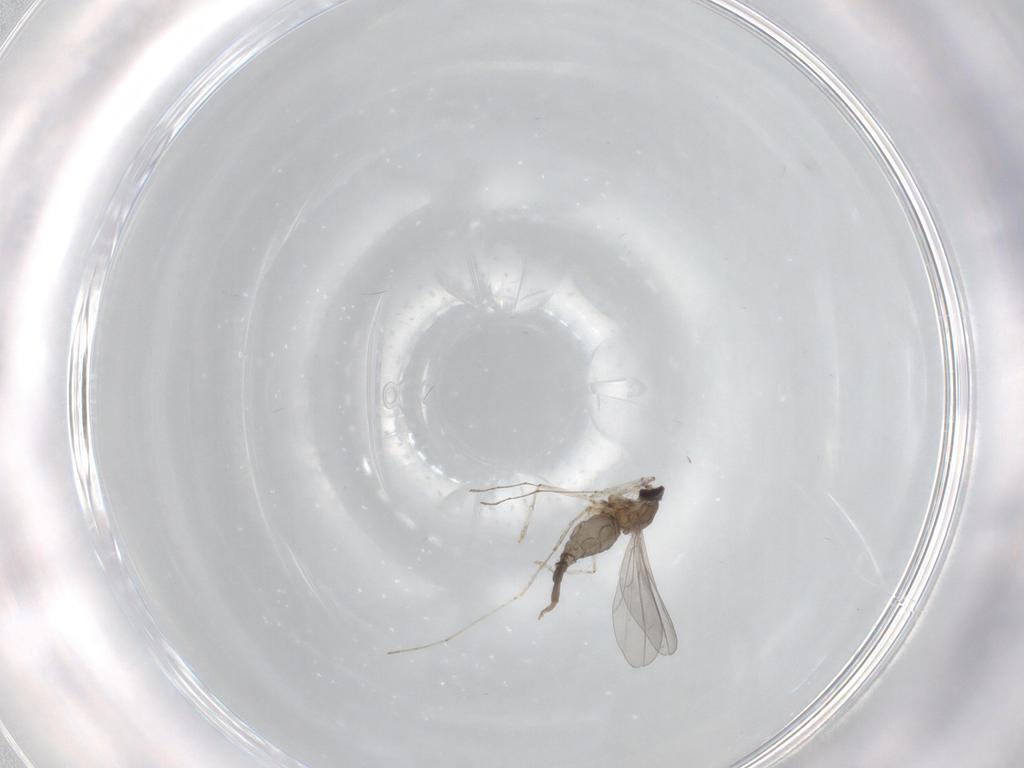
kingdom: Animalia
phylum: Arthropoda
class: Insecta
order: Diptera
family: Cecidomyiidae
